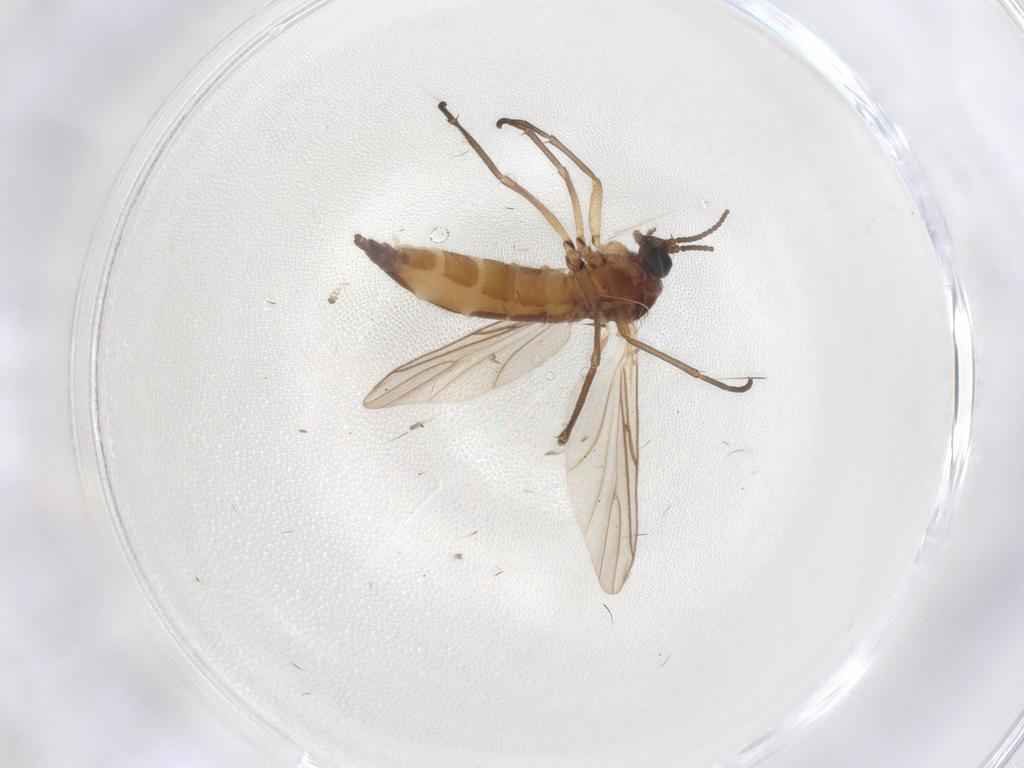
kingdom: Animalia
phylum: Arthropoda
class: Insecta
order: Diptera
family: Sciaridae
